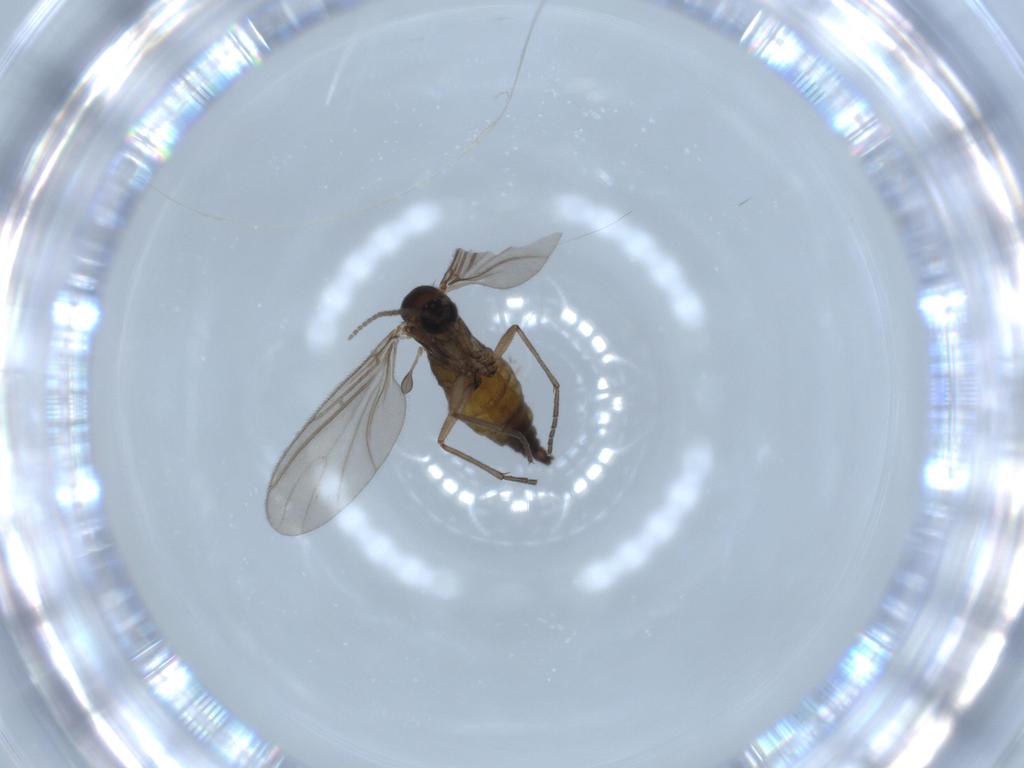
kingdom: Animalia
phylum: Arthropoda
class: Insecta
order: Diptera
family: Sciaridae
